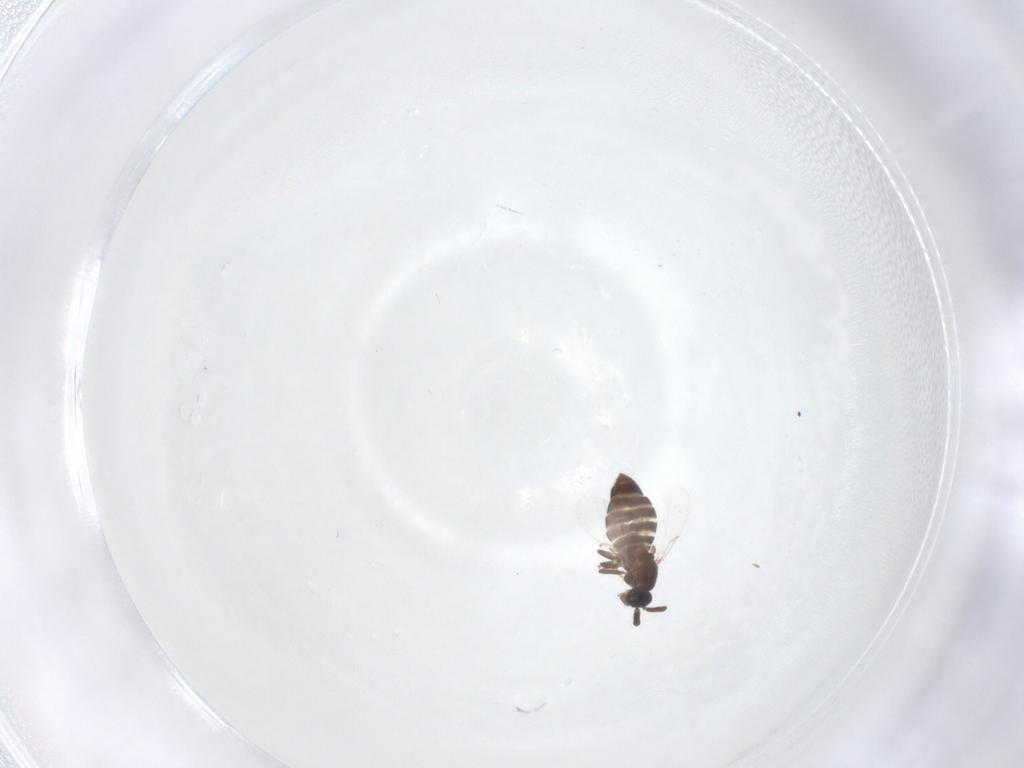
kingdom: Animalia
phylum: Arthropoda
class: Insecta
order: Diptera
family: Scatopsidae
